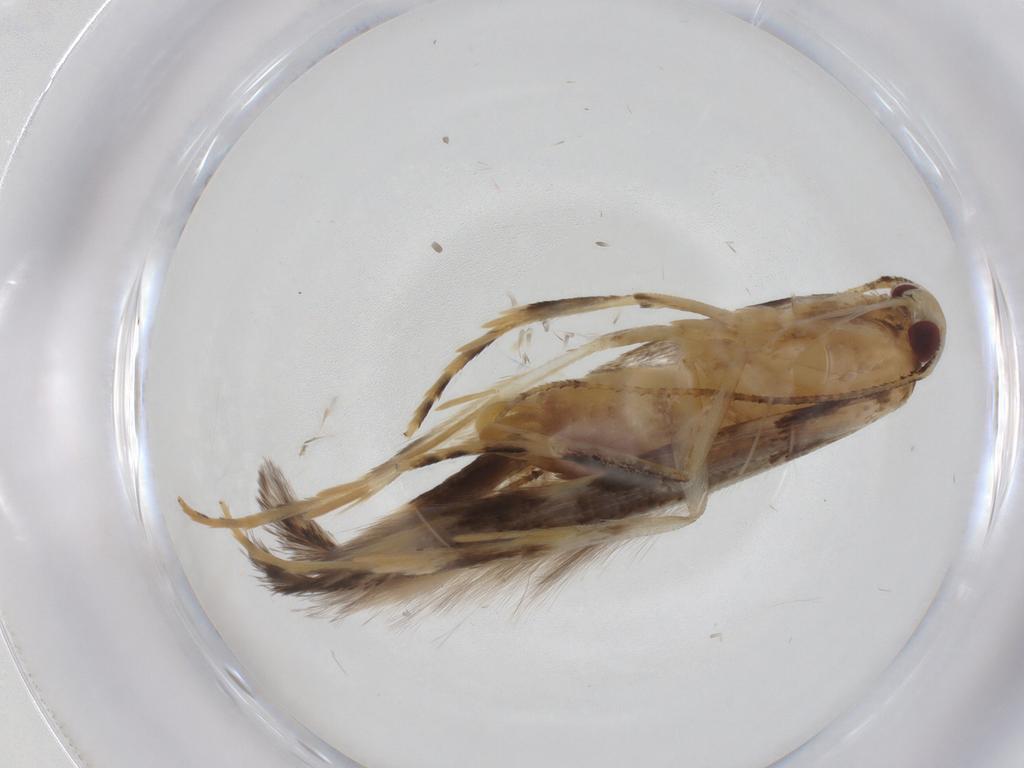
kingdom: Animalia
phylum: Arthropoda
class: Insecta
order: Lepidoptera
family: Cosmopterigidae
